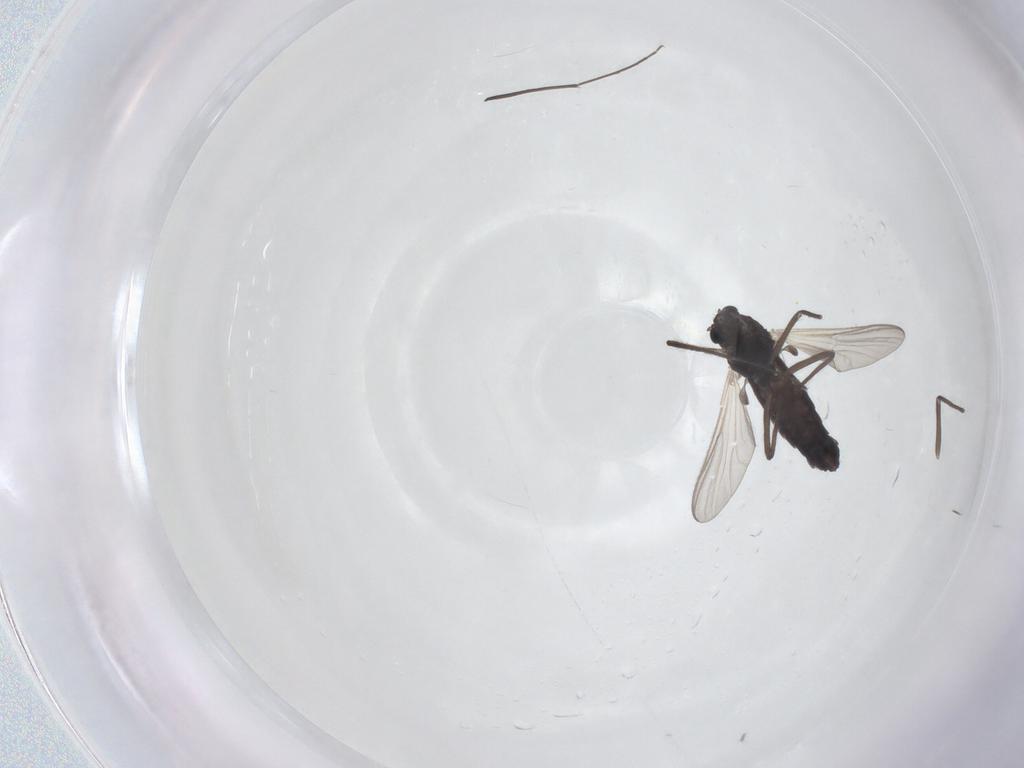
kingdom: Animalia
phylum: Arthropoda
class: Insecta
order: Diptera
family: Chironomidae
